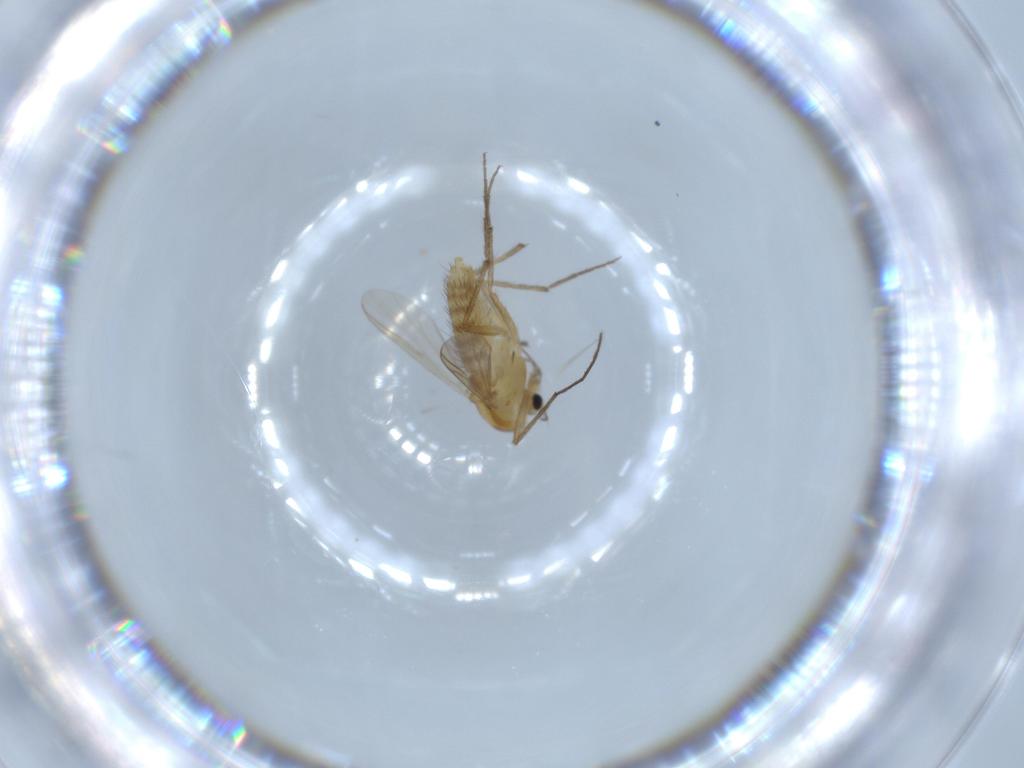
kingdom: Animalia
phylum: Arthropoda
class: Insecta
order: Diptera
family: Chironomidae
